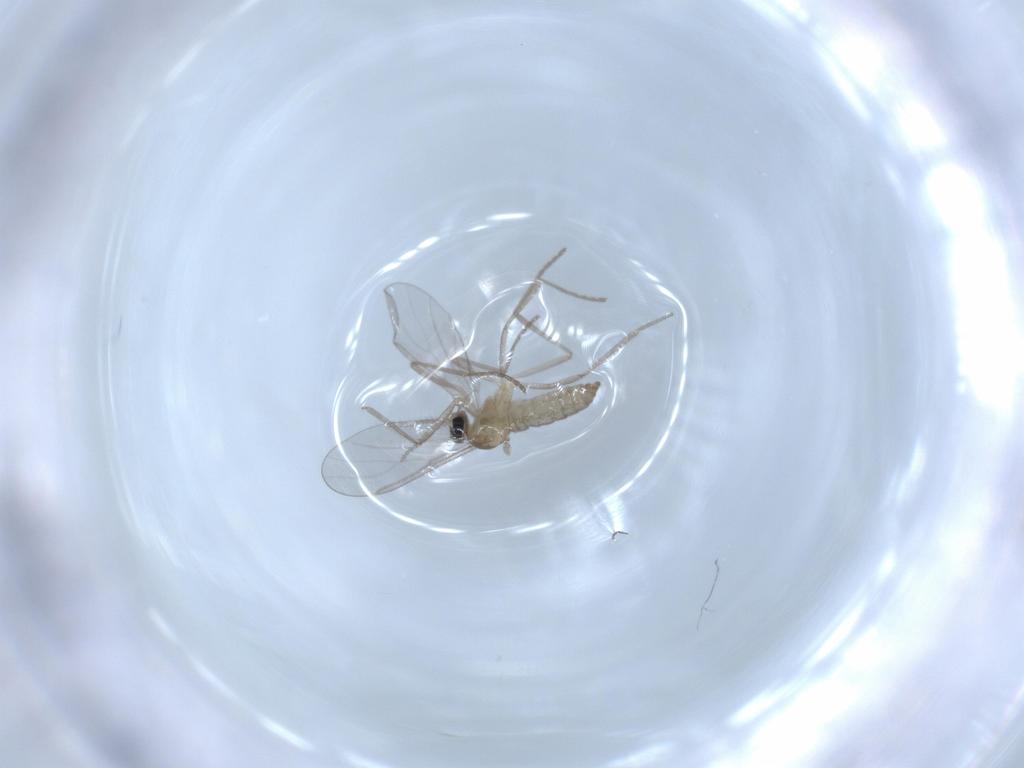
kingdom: Animalia
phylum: Arthropoda
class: Insecta
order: Diptera
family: Cecidomyiidae
